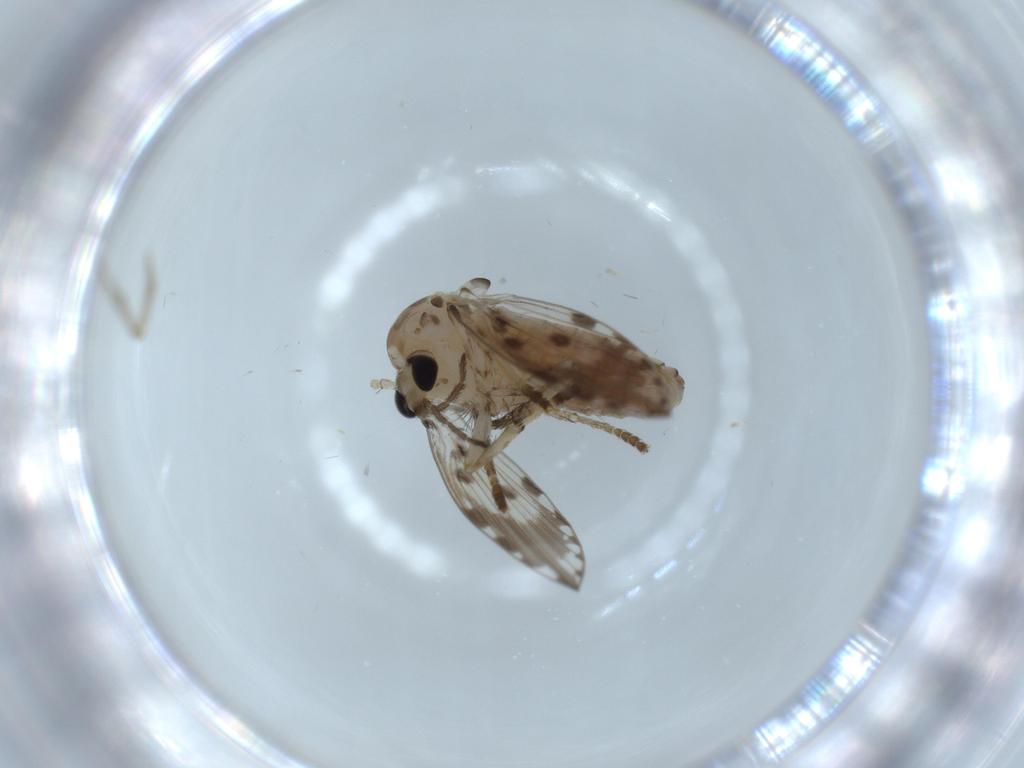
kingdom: Animalia
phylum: Arthropoda
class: Insecta
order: Diptera
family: Psychodidae
